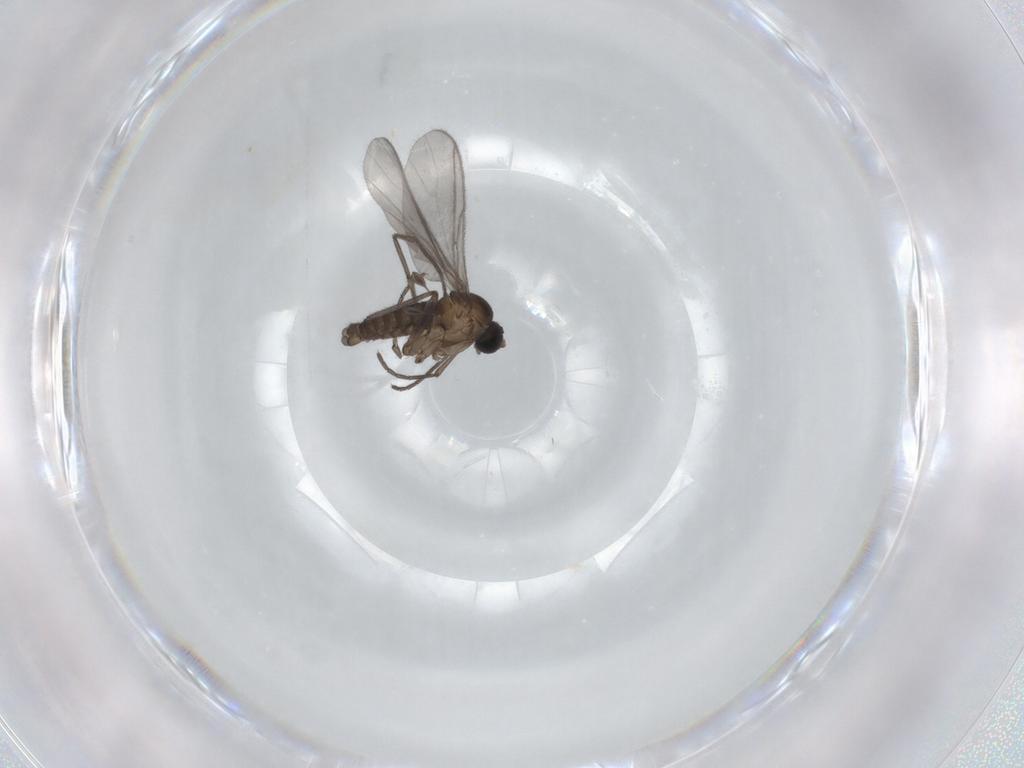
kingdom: Animalia
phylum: Arthropoda
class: Insecta
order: Diptera
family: Sciaridae
